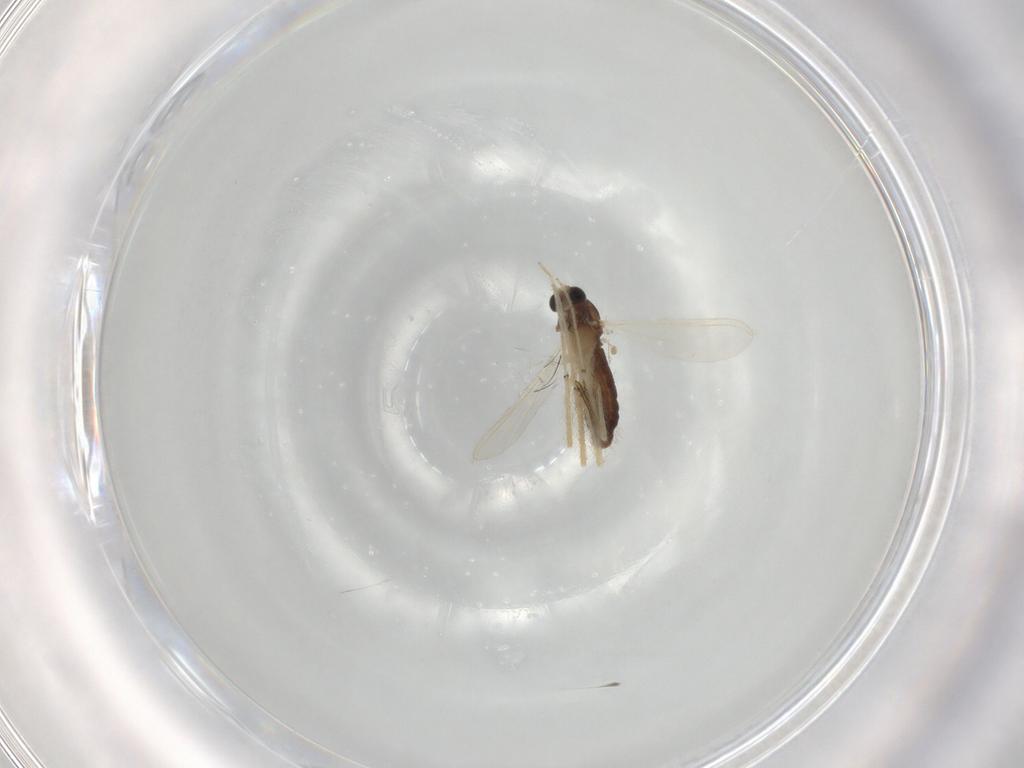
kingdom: Animalia
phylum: Arthropoda
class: Insecta
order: Diptera
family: Chironomidae
